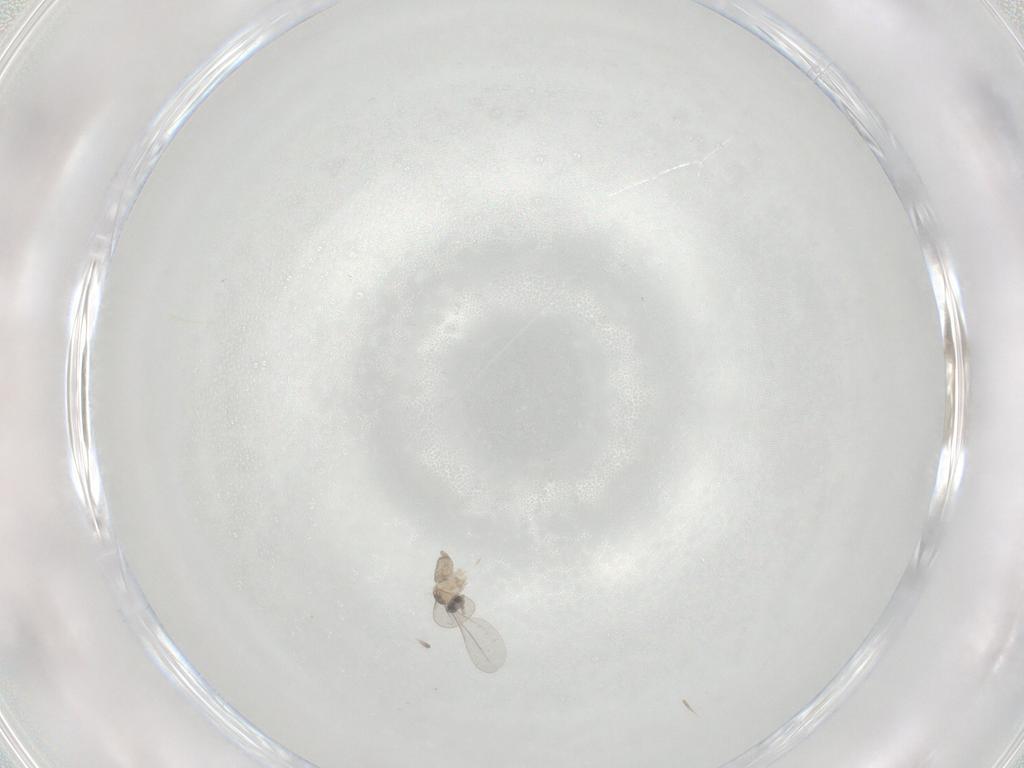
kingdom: Animalia
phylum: Arthropoda
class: Insecta
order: Diptera
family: Cecidomyiidae
